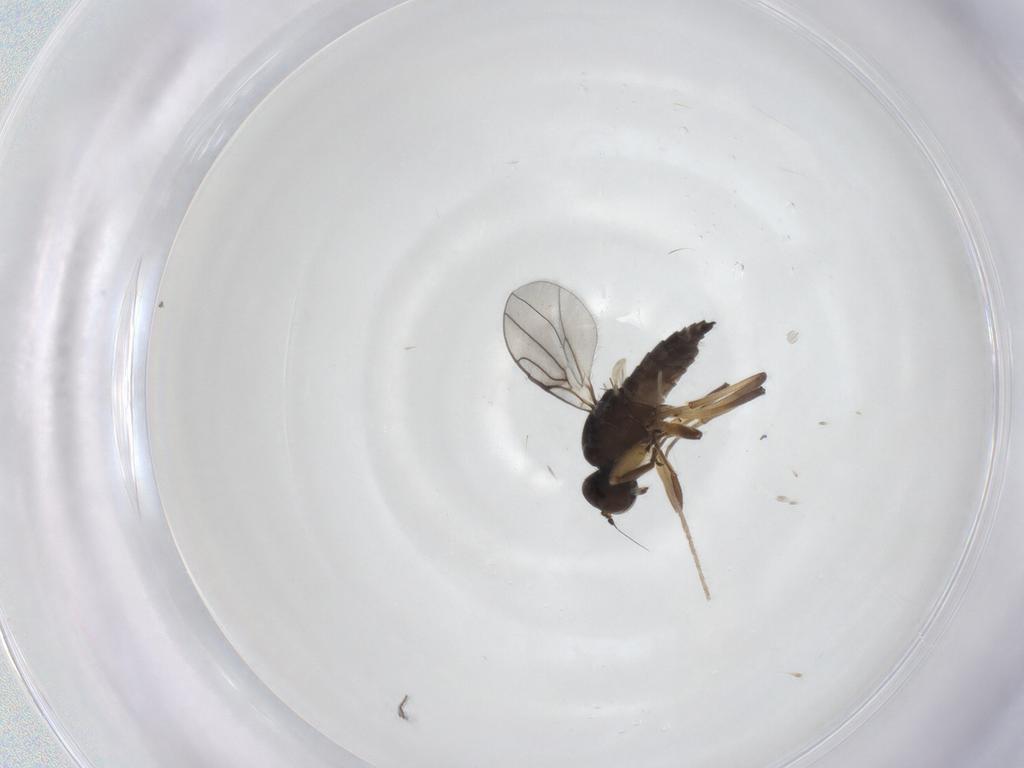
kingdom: Animalia
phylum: Arthropoda
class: Insecta
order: Diptera
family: Hybotidae
